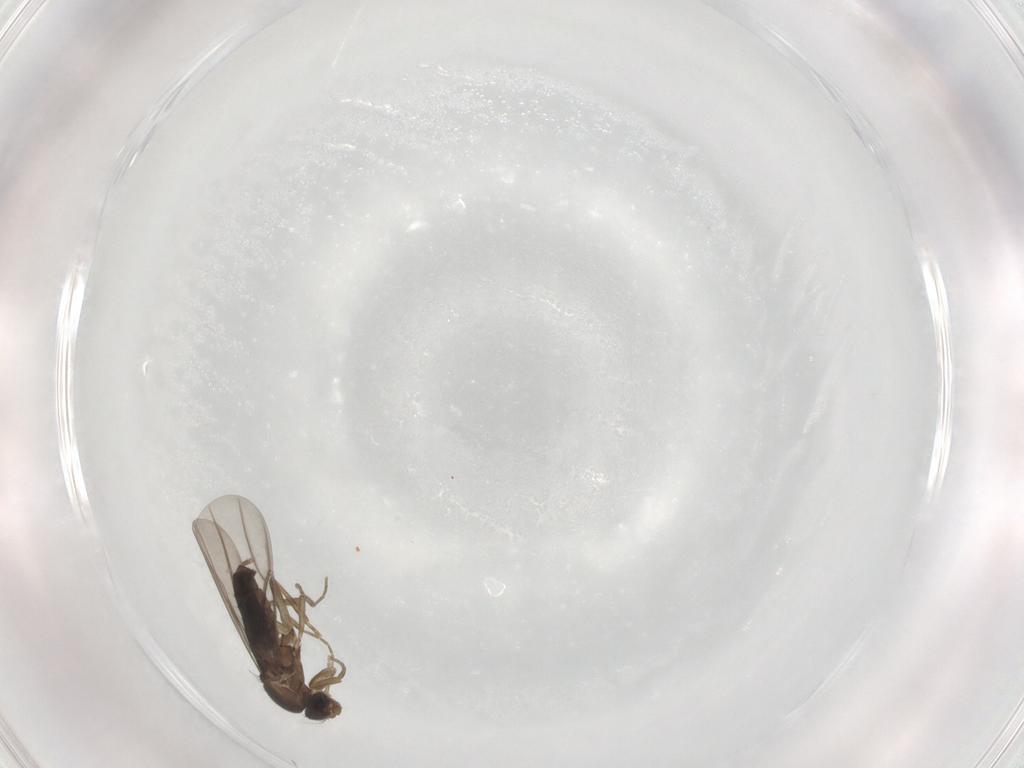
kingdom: Animalia
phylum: Arthropoda
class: Insecta
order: Diptera
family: Phoridae
